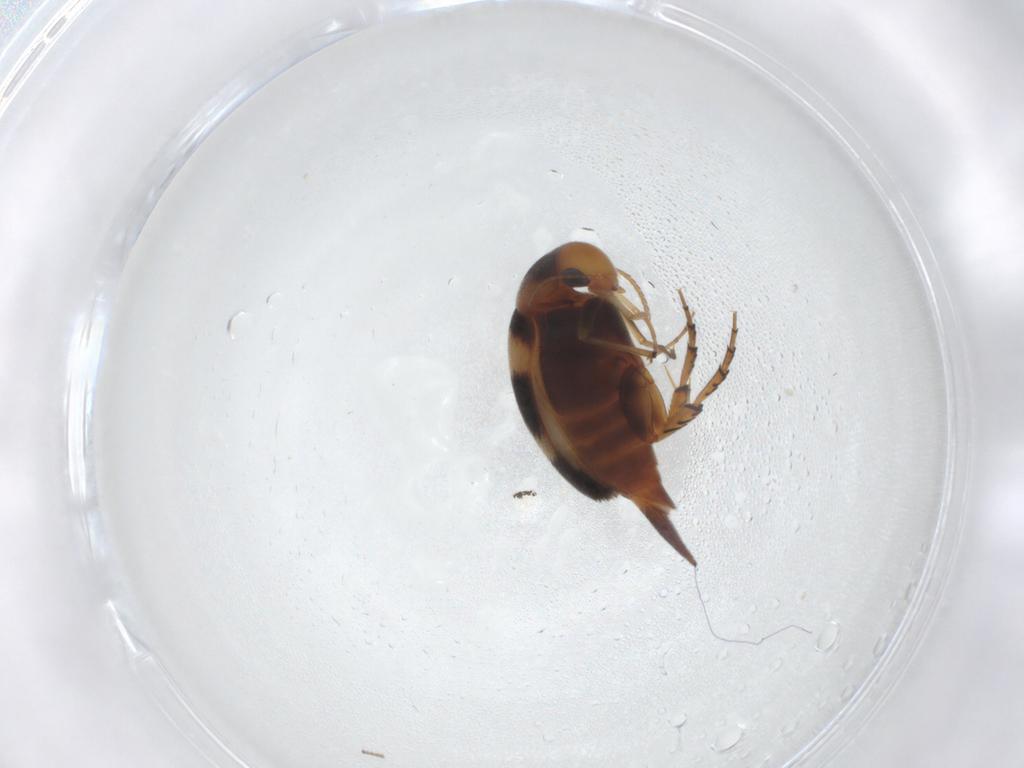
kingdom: Animalia
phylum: Arthropoda
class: Insecta
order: Coleoptera
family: Mordellidae
